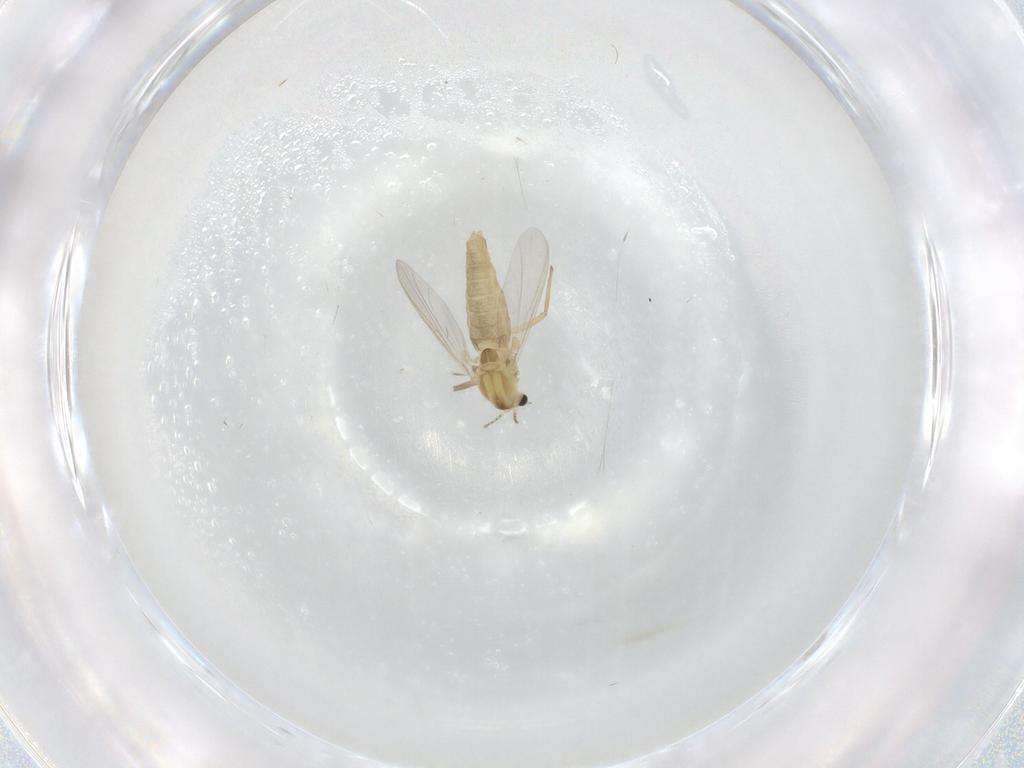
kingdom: Animalia
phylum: Arthropoda
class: Insecta
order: Diptera
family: Chironomidae
